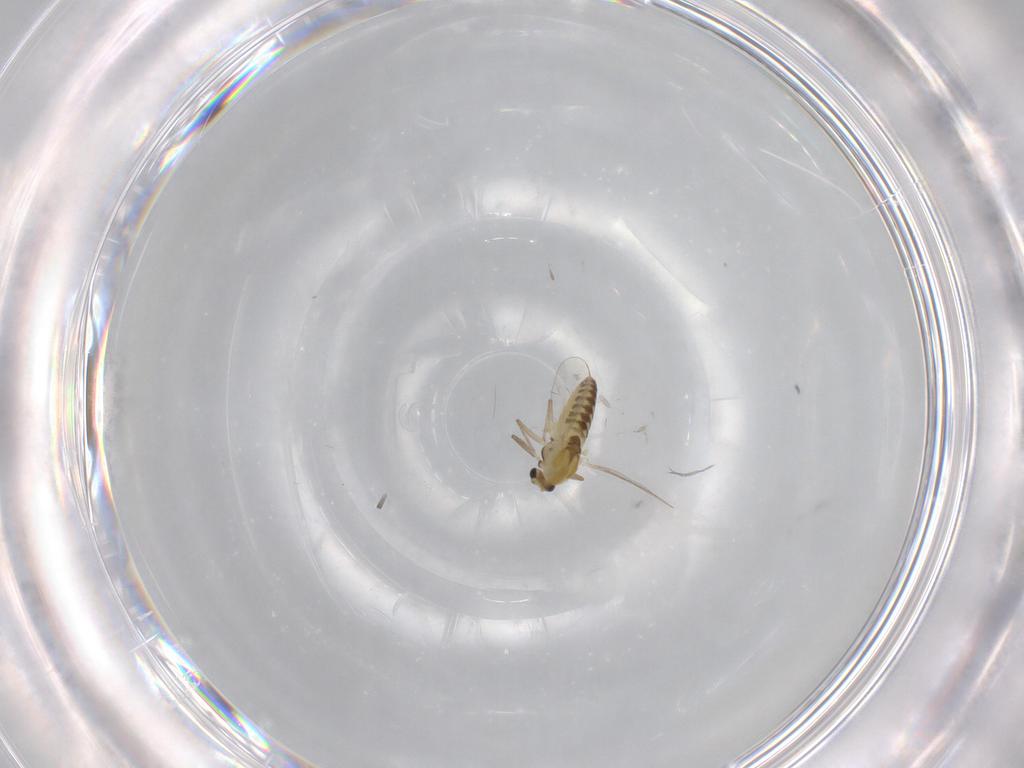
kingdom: Animalia
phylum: Arthropoda
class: Insecta
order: Diptera
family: Chironomidae
